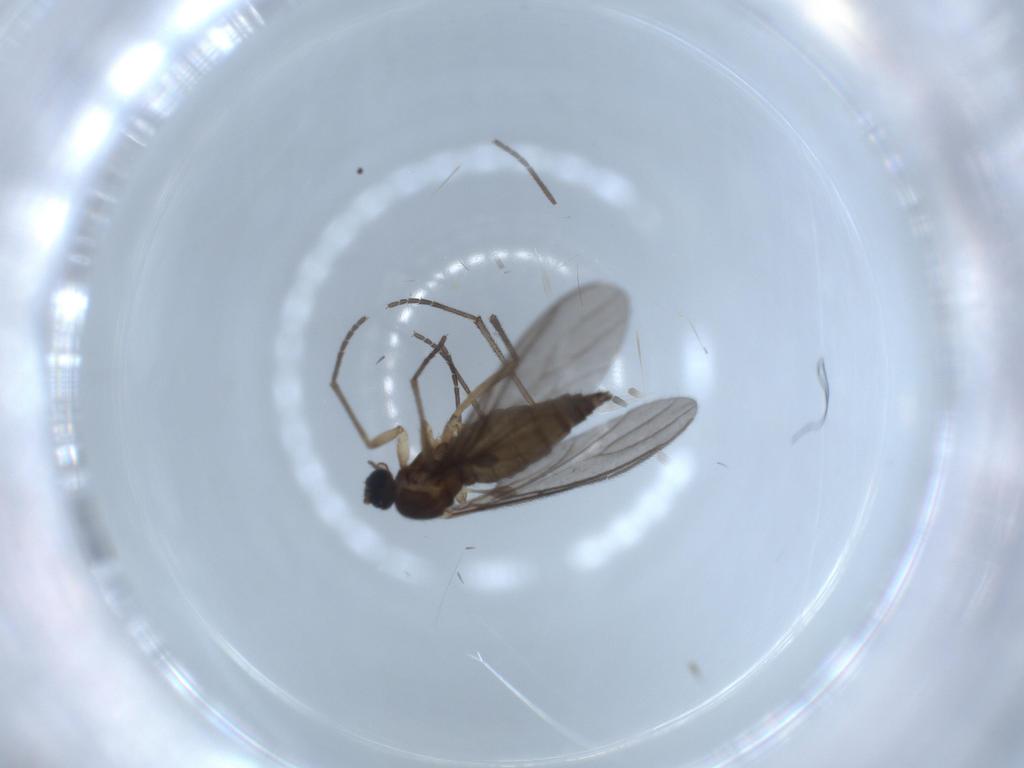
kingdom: Animalia
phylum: Arthropoda
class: Insecta
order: Diptera
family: Sciaridae
